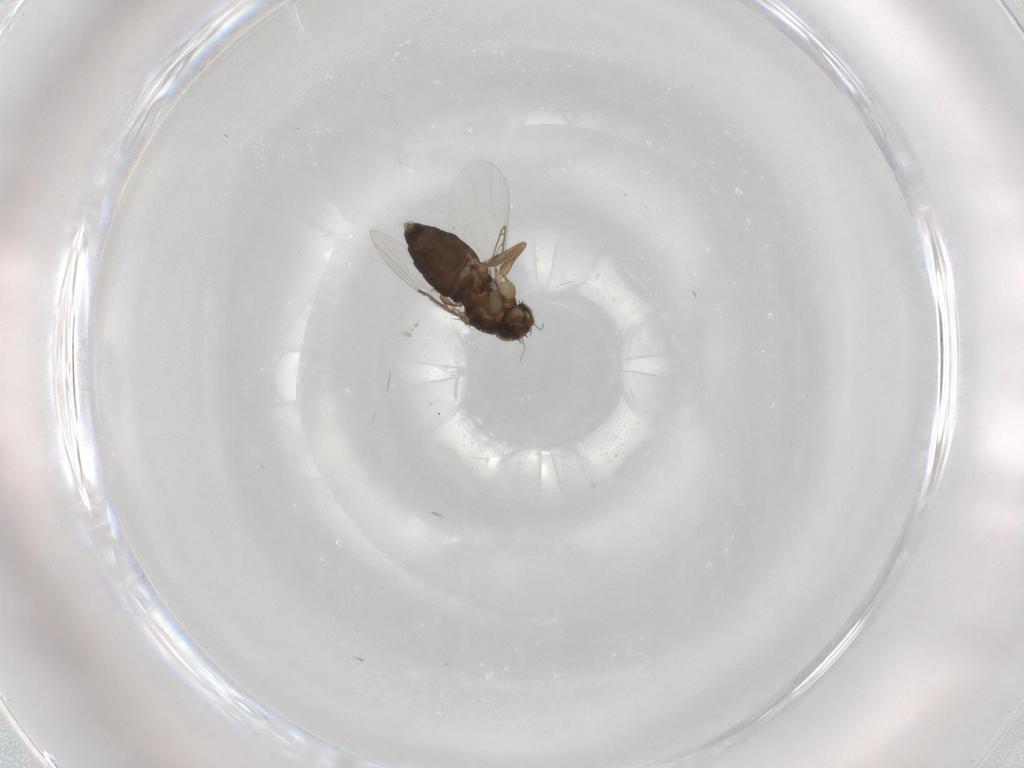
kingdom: Animalia
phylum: Arthropoda
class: Insecta
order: Diptera
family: Phoridae
